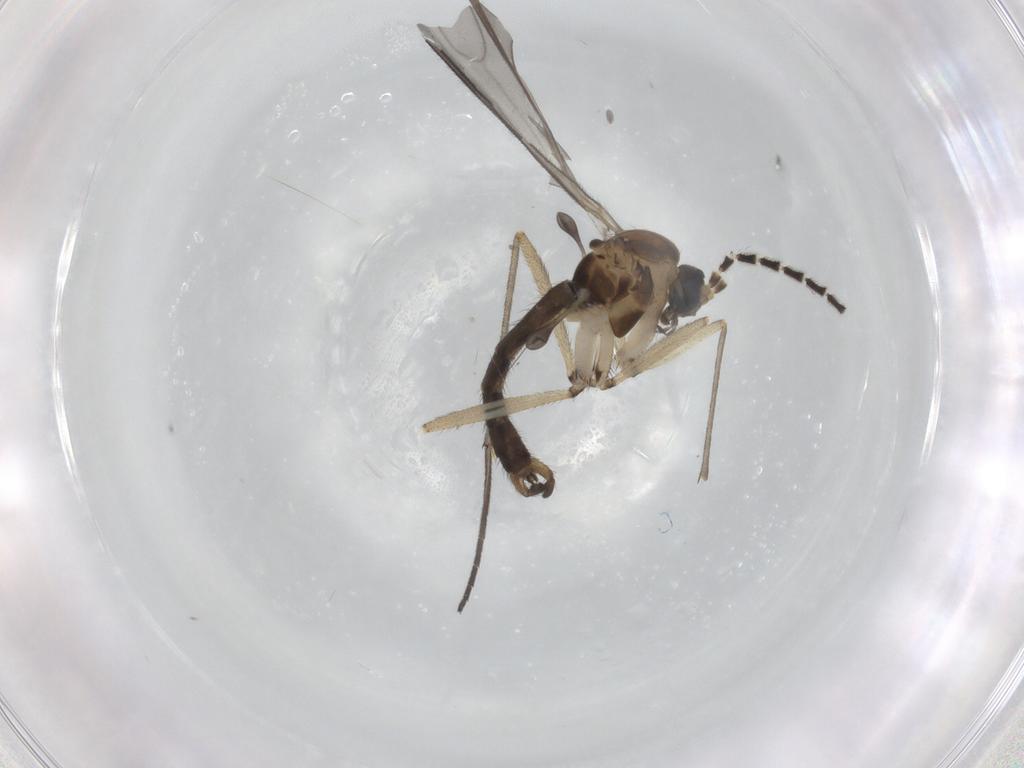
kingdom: Animalia
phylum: Arthropoda
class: Insecta
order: Diptera
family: Sciaridae
